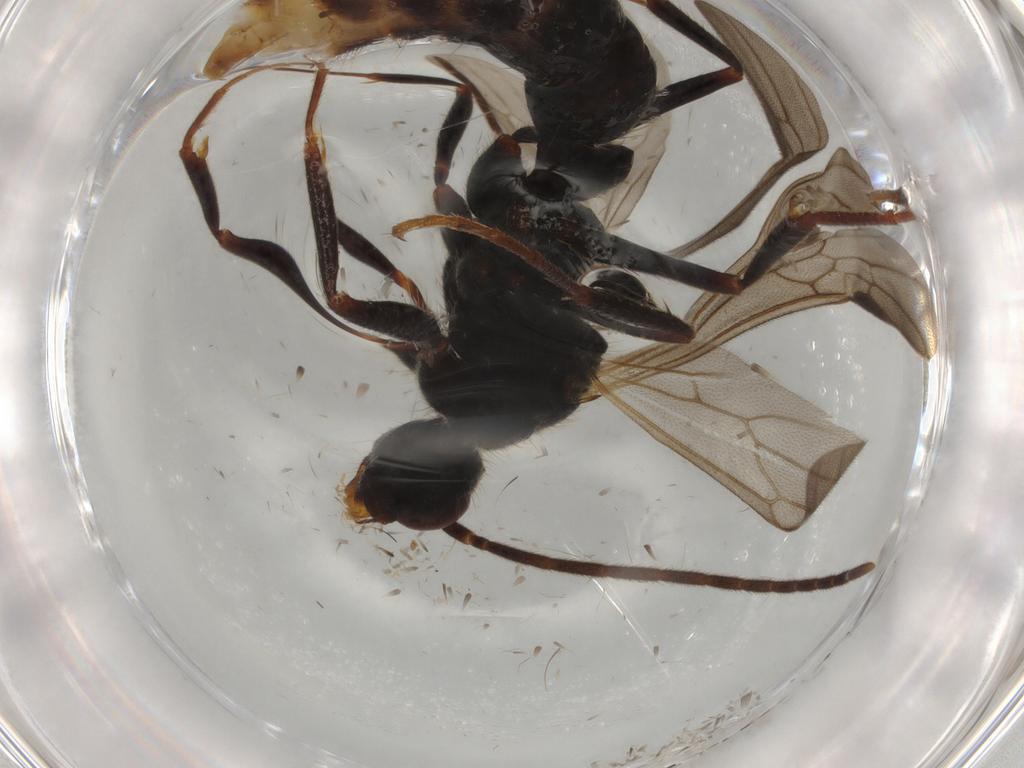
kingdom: Animalia
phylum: Arthropoda
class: Insecta
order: Hymenoptera
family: Formicidae
